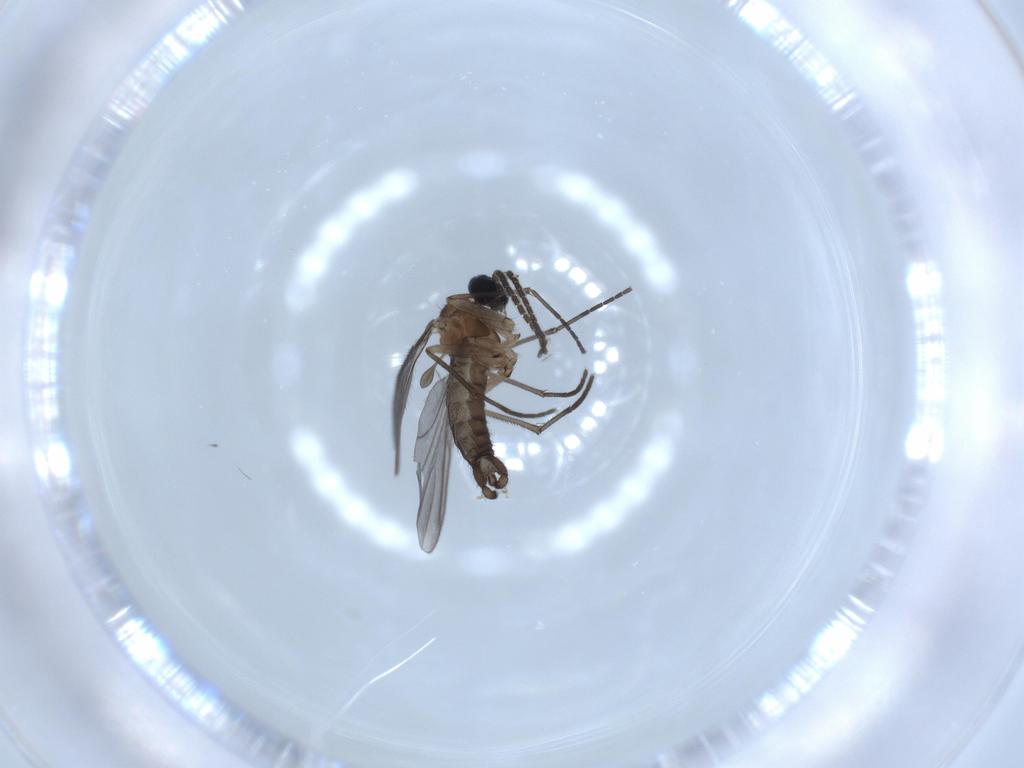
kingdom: Animalia
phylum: Arthropoda
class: Insecta
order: Diptera
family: Sciaridae
